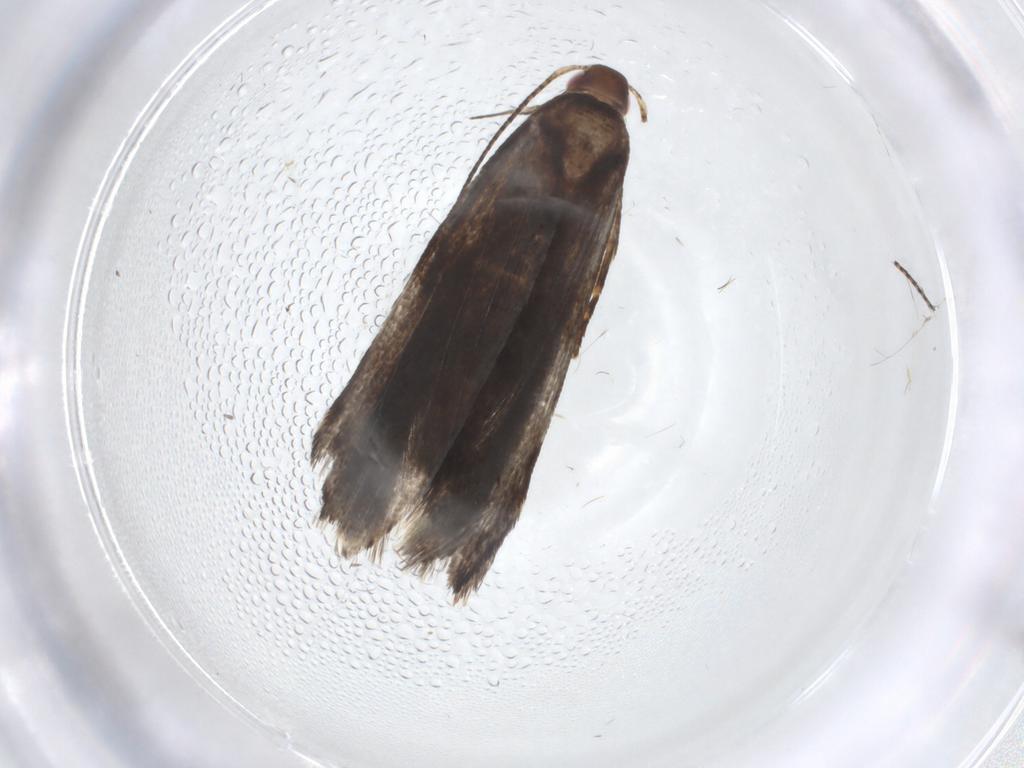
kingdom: Animalia
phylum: Arthropoda
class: Insecta
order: Lepidoptera
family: Gelechiidae
